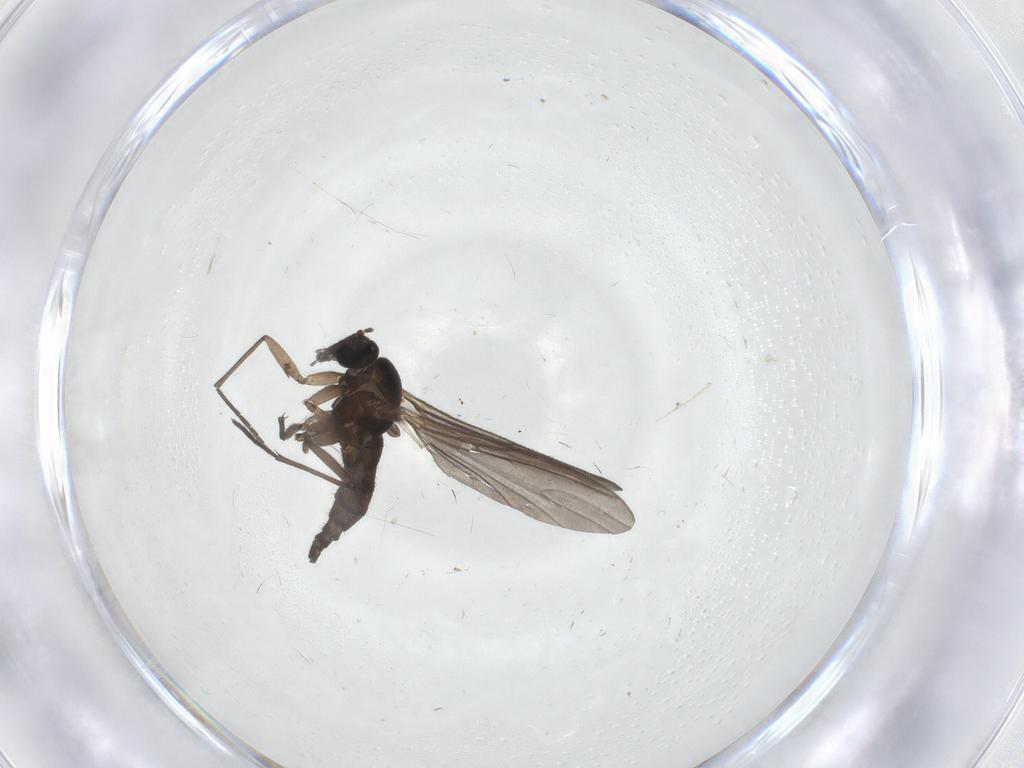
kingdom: Animalia
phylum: Arthropoda
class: Insecta
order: Diptera
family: Sciaridae
